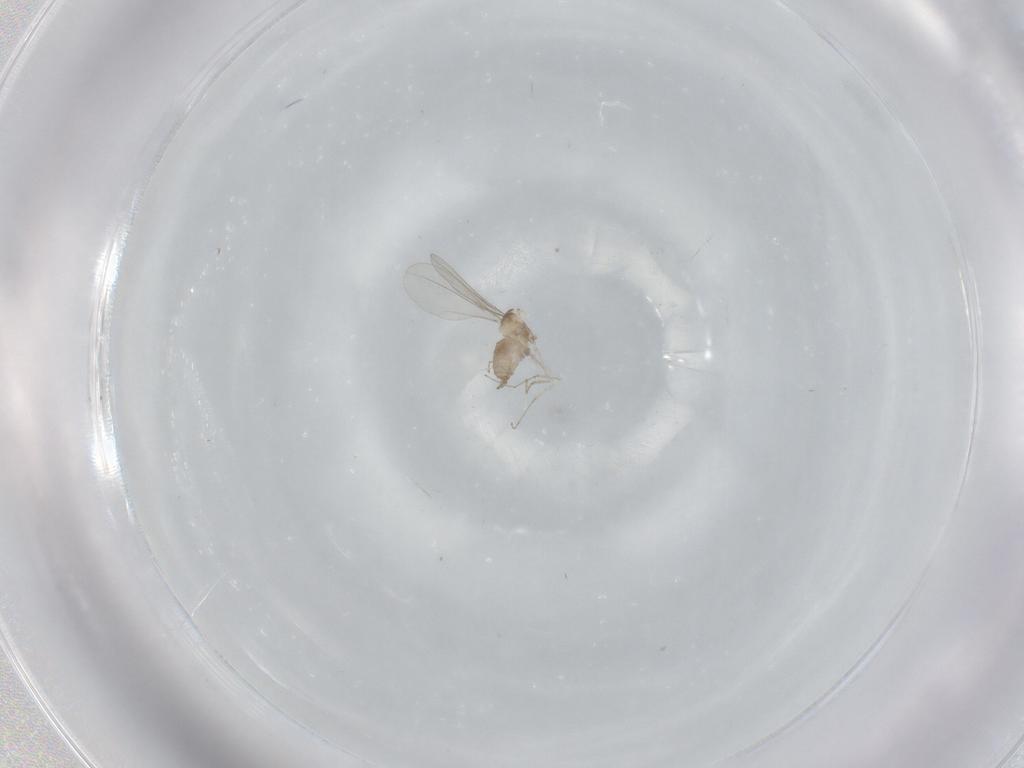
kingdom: Animalia
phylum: Arthropoda
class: Insecta
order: Diptera
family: Cecidomyiidae
